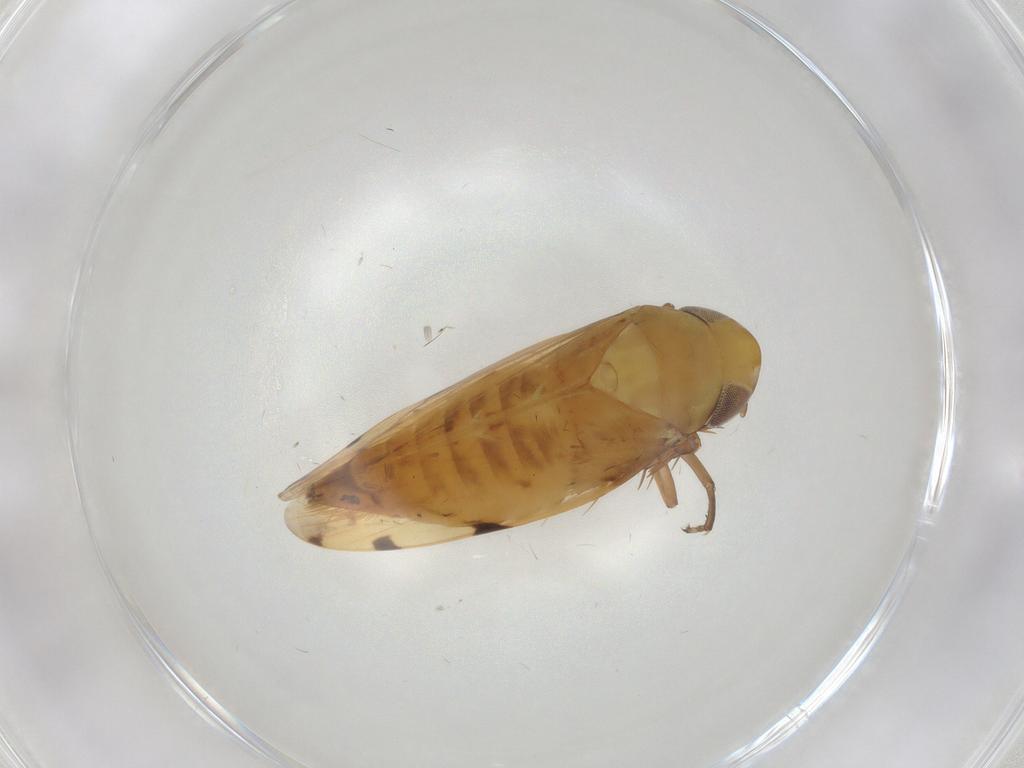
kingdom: Animalia
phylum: Arthropoda
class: Insecta
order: Hemiptera
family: Cicadellidae
